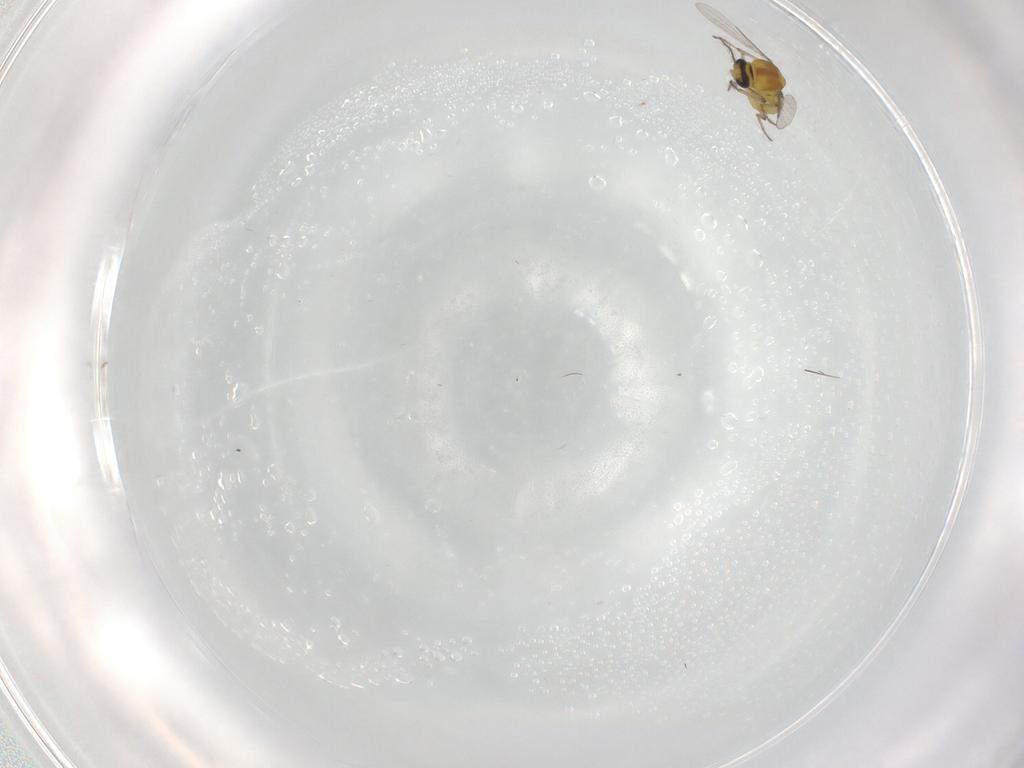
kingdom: Animalia
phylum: Arthropoda
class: Insecta
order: Diptera
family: Ceratopogonidae
